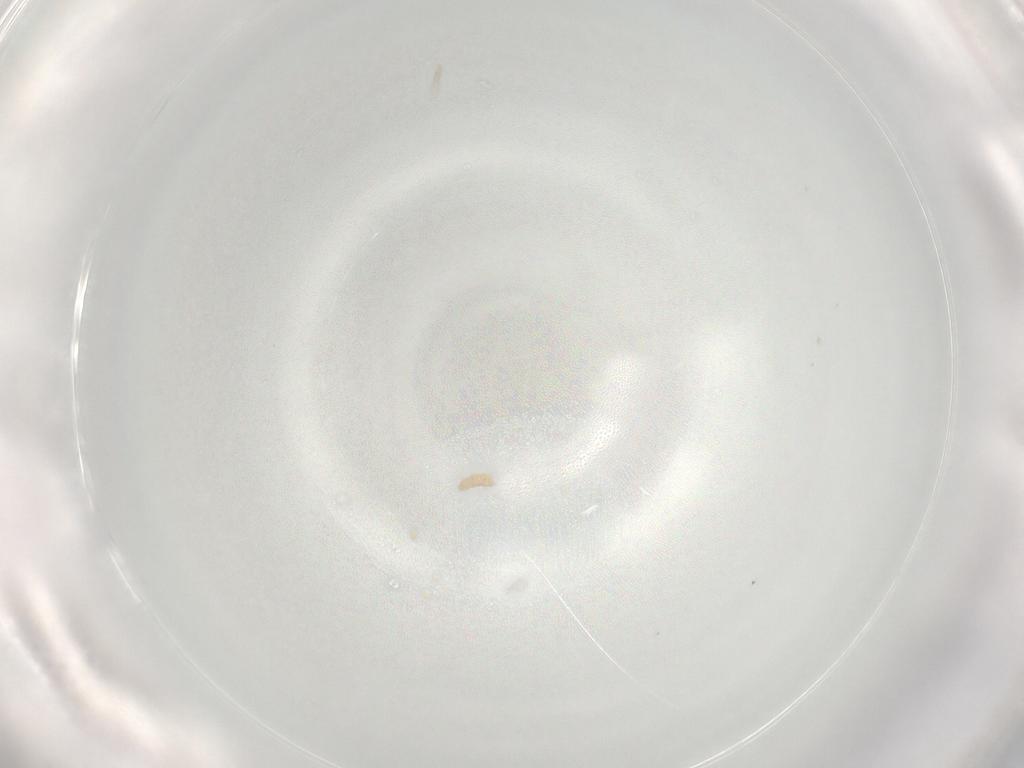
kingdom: Animalia
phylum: Arthropoda
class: Insecta
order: Diptera
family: Chironomidae
